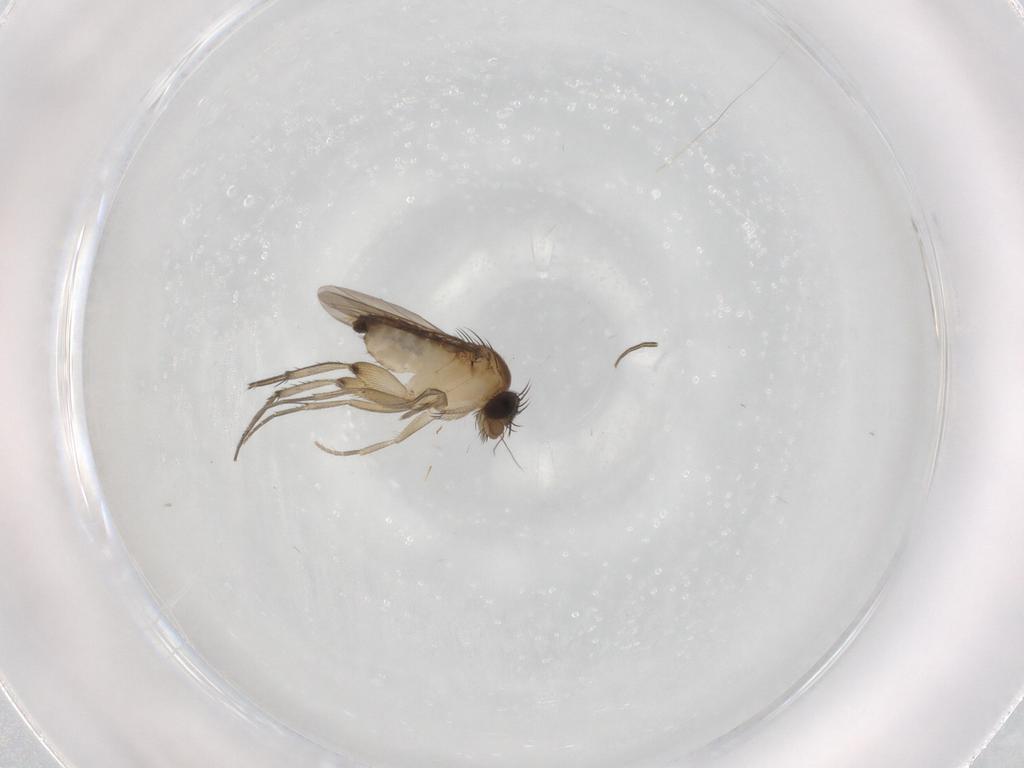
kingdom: Animalia
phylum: Arthropoda
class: Insecta
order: Diptera
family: Phoridae
